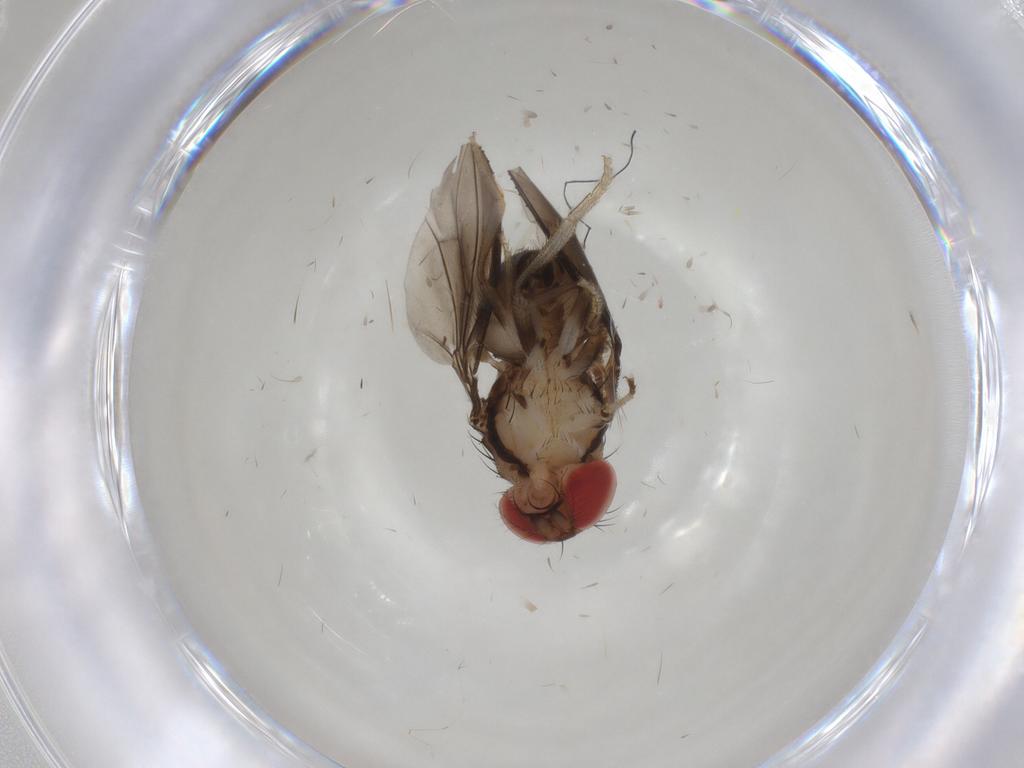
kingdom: Animalia
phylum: Arthropoda
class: Insecta
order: Diptera
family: Drosophilidae
